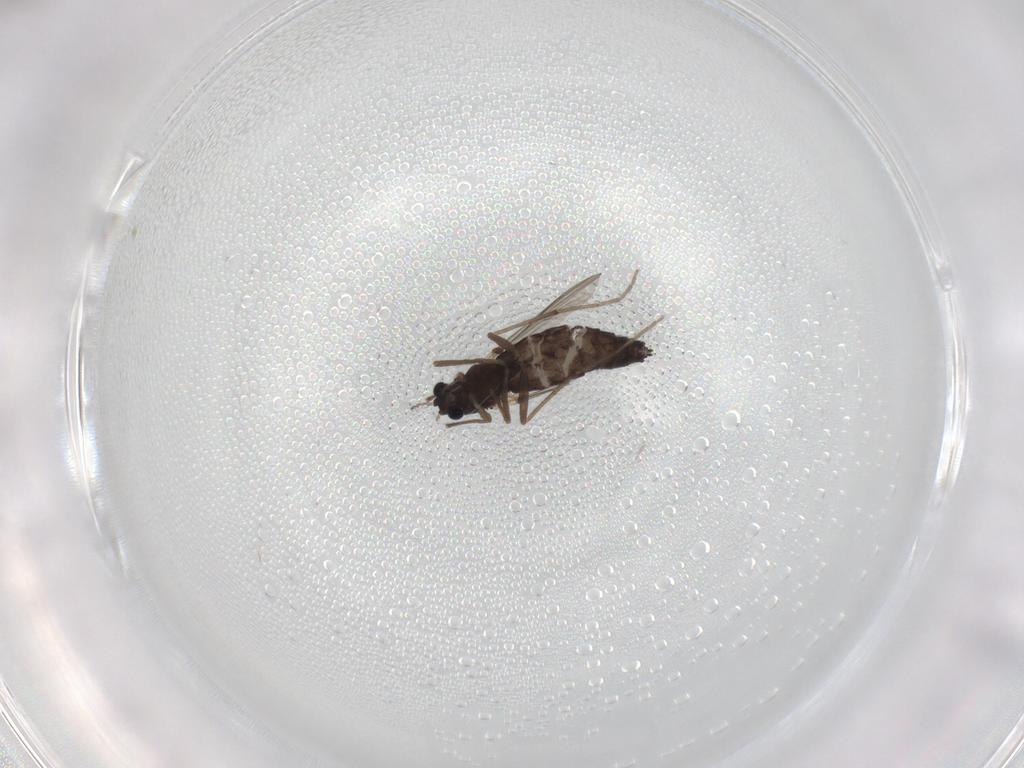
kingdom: Animalia
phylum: Arthropoda
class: Insecta
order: Diptera
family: Chironomidae
